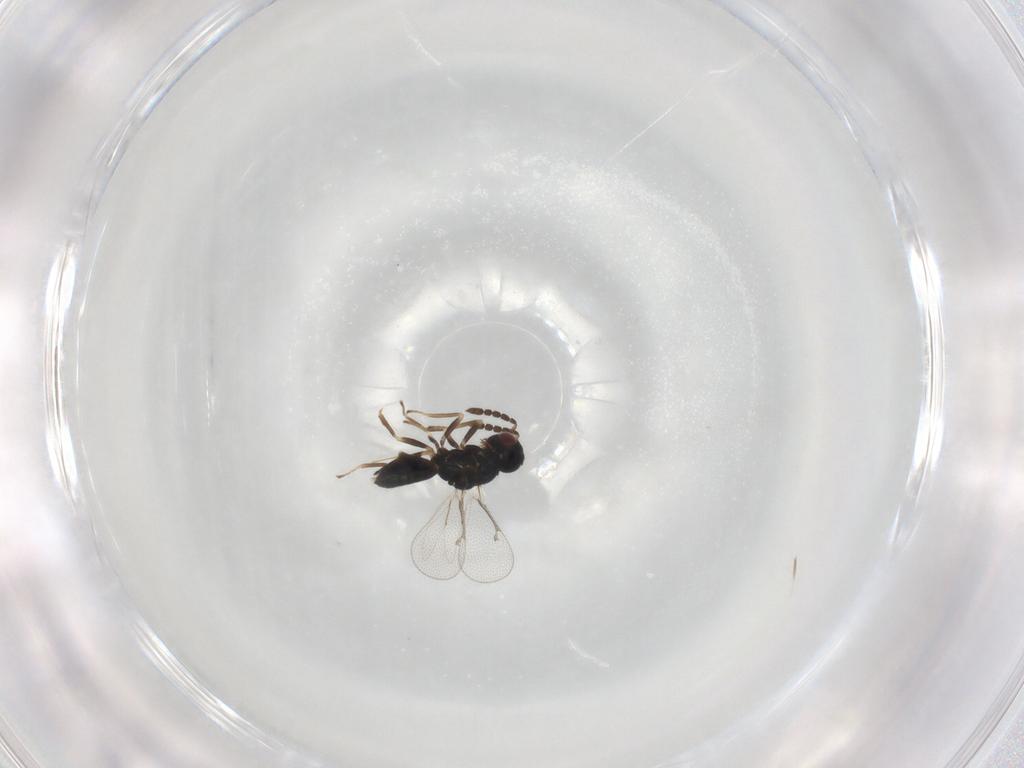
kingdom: Animalia
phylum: Arthropoda
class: Insecta
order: Hymenoptera
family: Eulophidae
